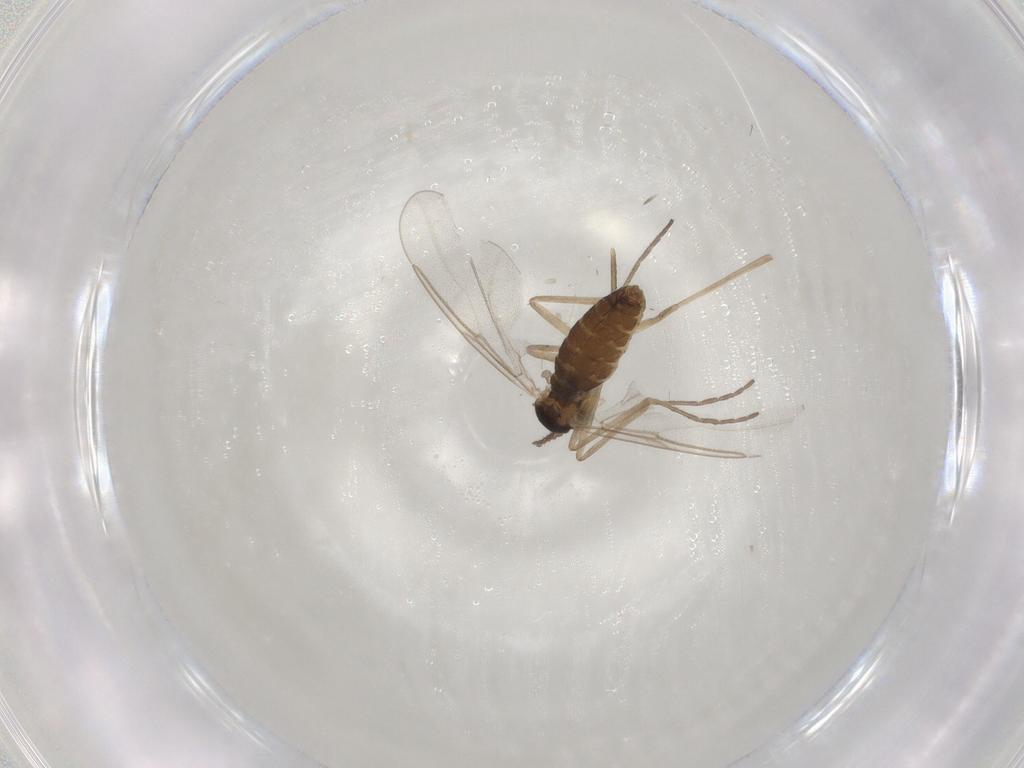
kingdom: Animalia
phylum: Arthropoda
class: Insecta
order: Diptera
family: Cecidomyiidae
